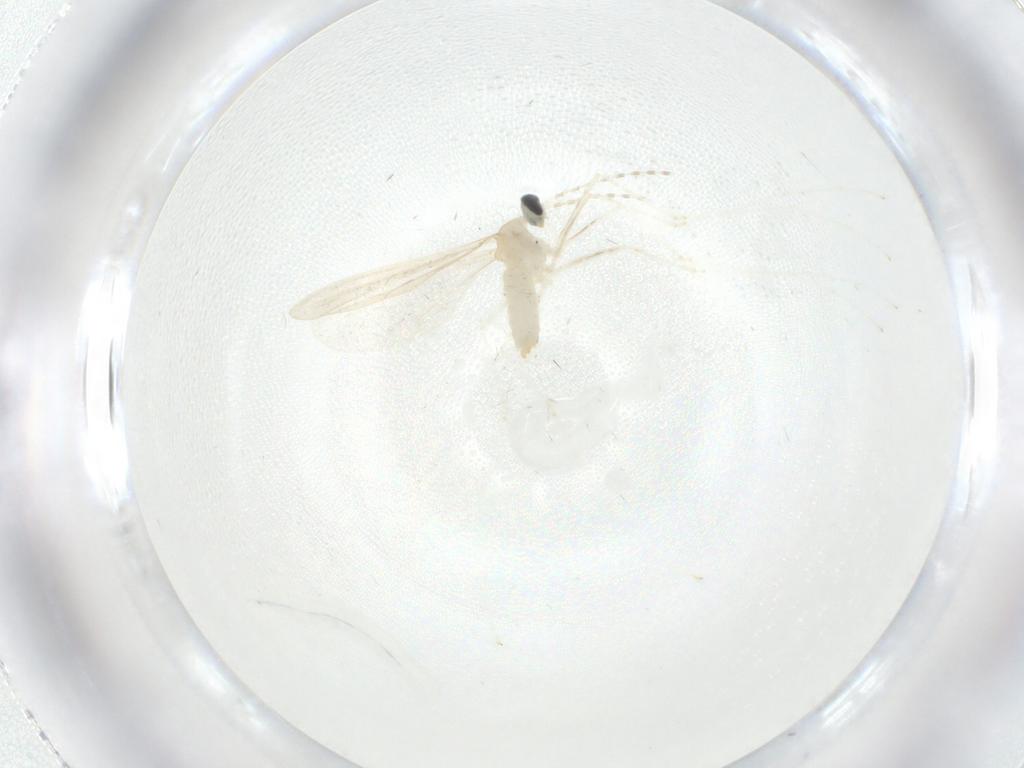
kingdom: Animalia
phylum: Arthropoda
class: Insecta
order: Diptera
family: Cecidomyiidae
